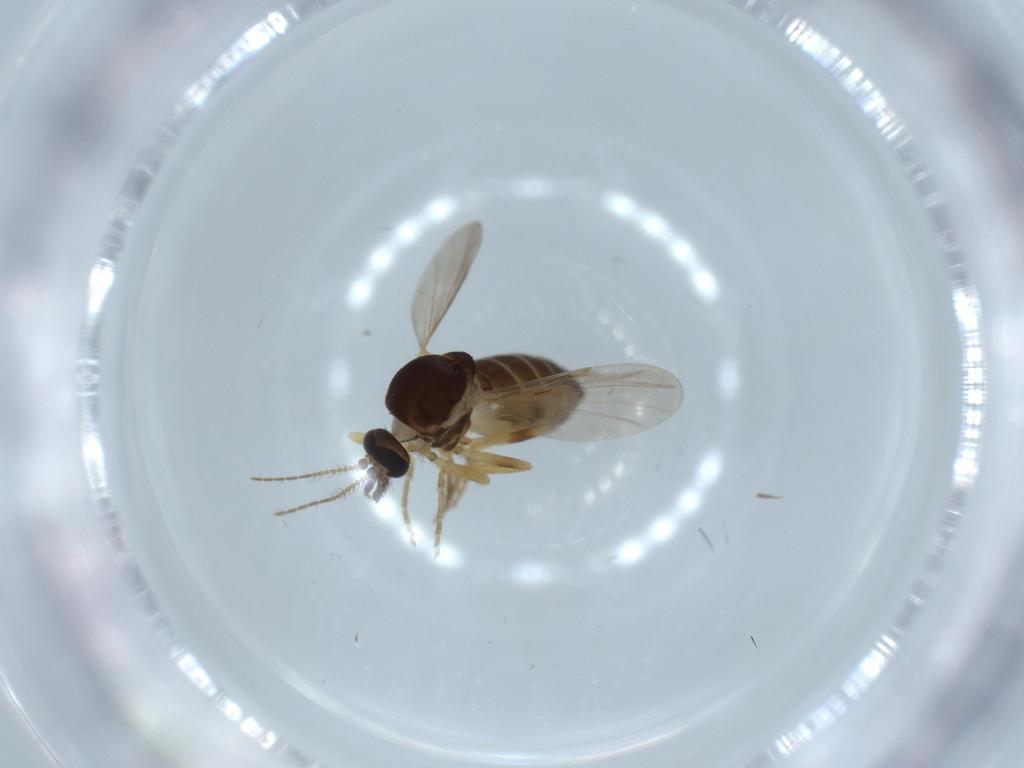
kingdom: Animalia
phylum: Arthropoda
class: Insecta
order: Diptera
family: Ceratopogonidae
